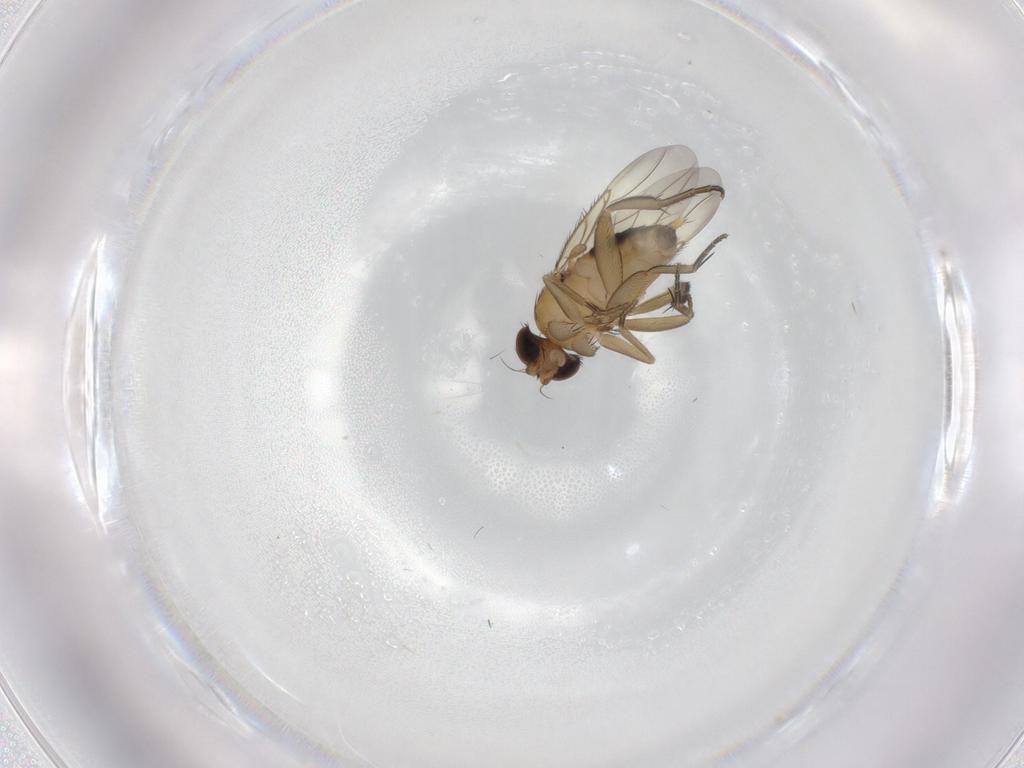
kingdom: Animalia
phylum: Arthropoda
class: Insecta
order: Diptera
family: Phoridae
